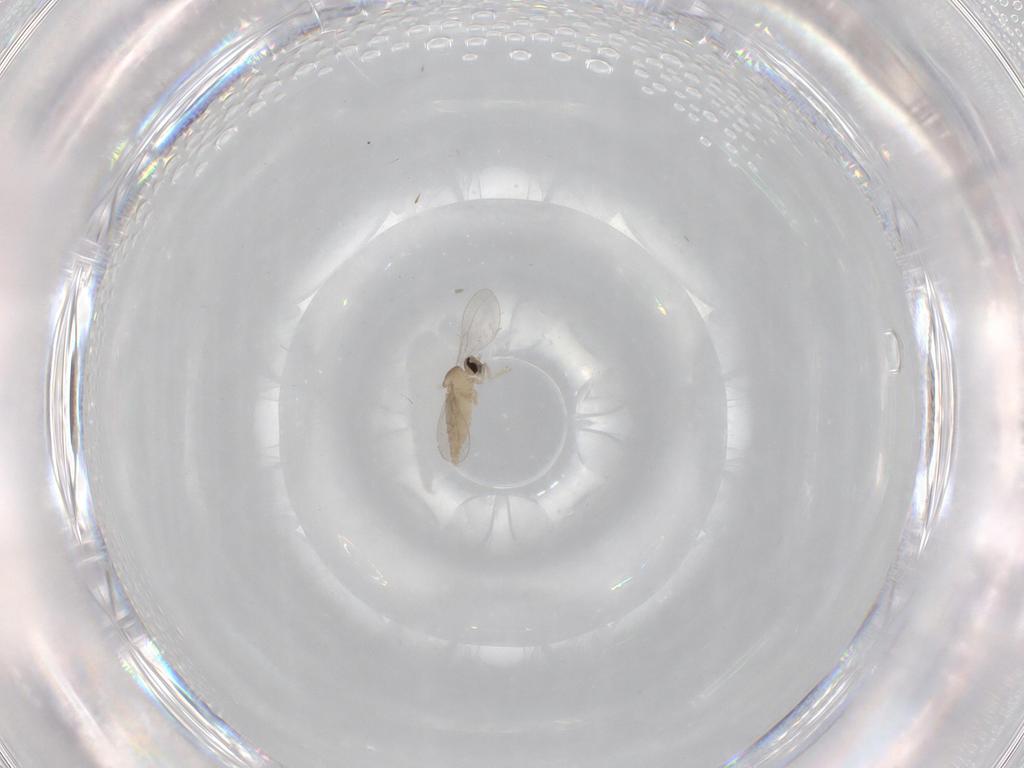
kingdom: Animalia
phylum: Arthropoda
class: Insecta
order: Diptera
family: Cecidomyiidae
